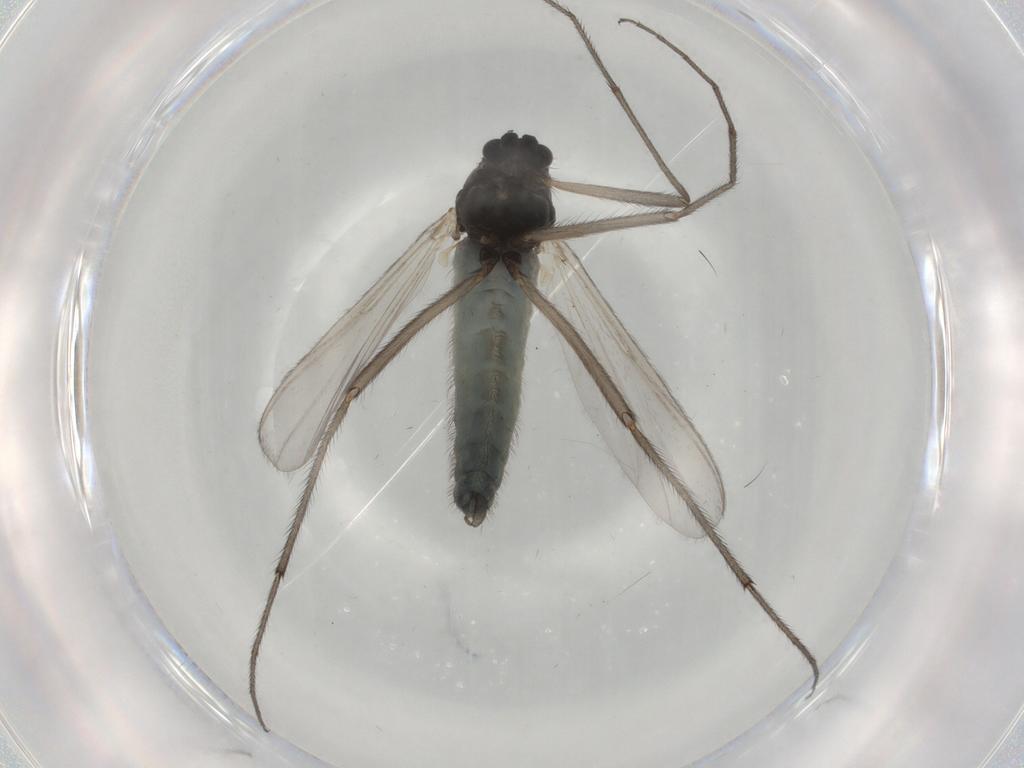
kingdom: Animalia
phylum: Arthropoda
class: Insecta
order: Diptera
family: Chironomidae
